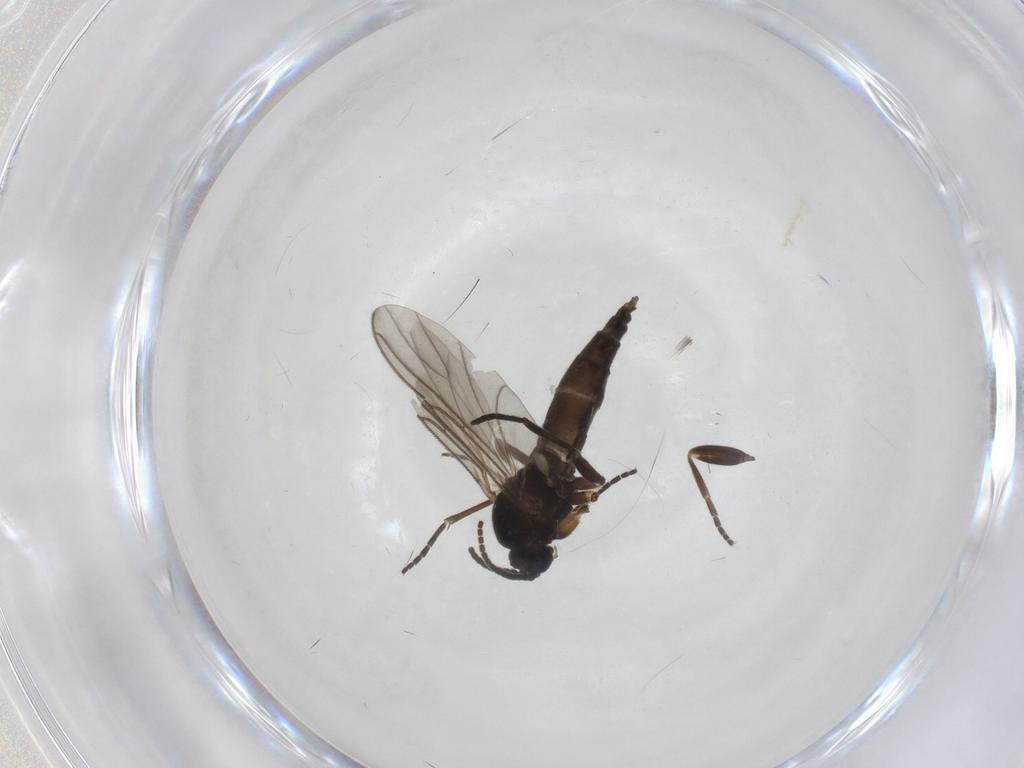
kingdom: Animalia
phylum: Arthropoda
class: Insecta
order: Diptera
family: Sciaridae
